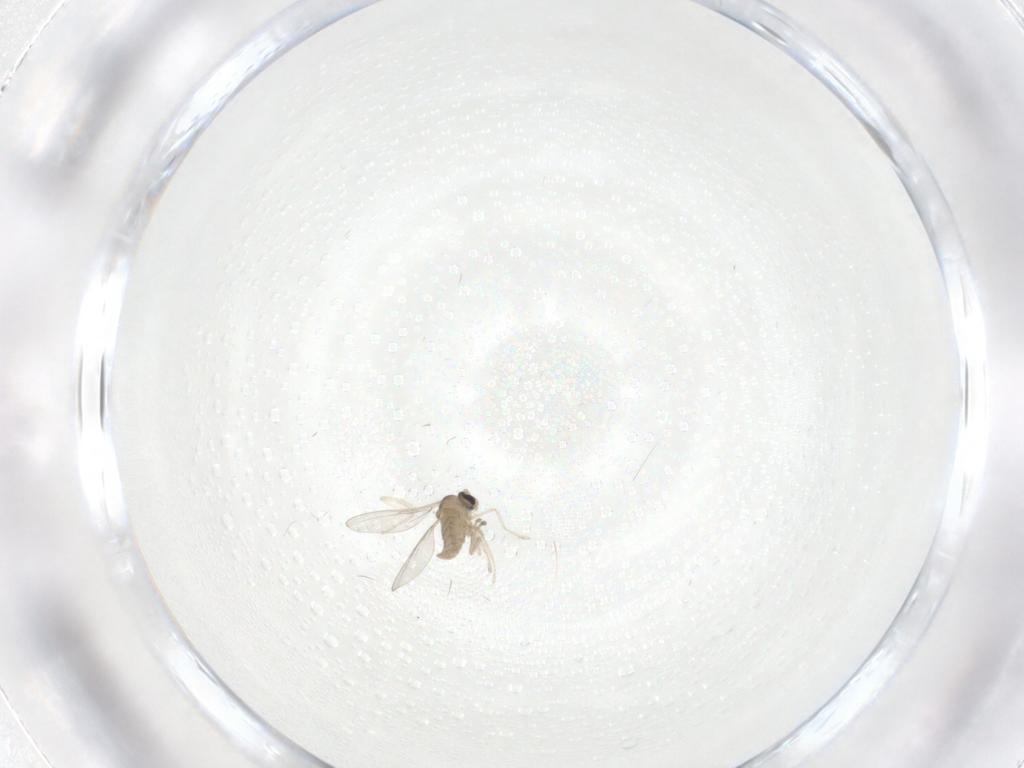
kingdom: Animalia
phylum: Arthropoda
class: Insecta
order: Diptera
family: Cecidomyiidae
